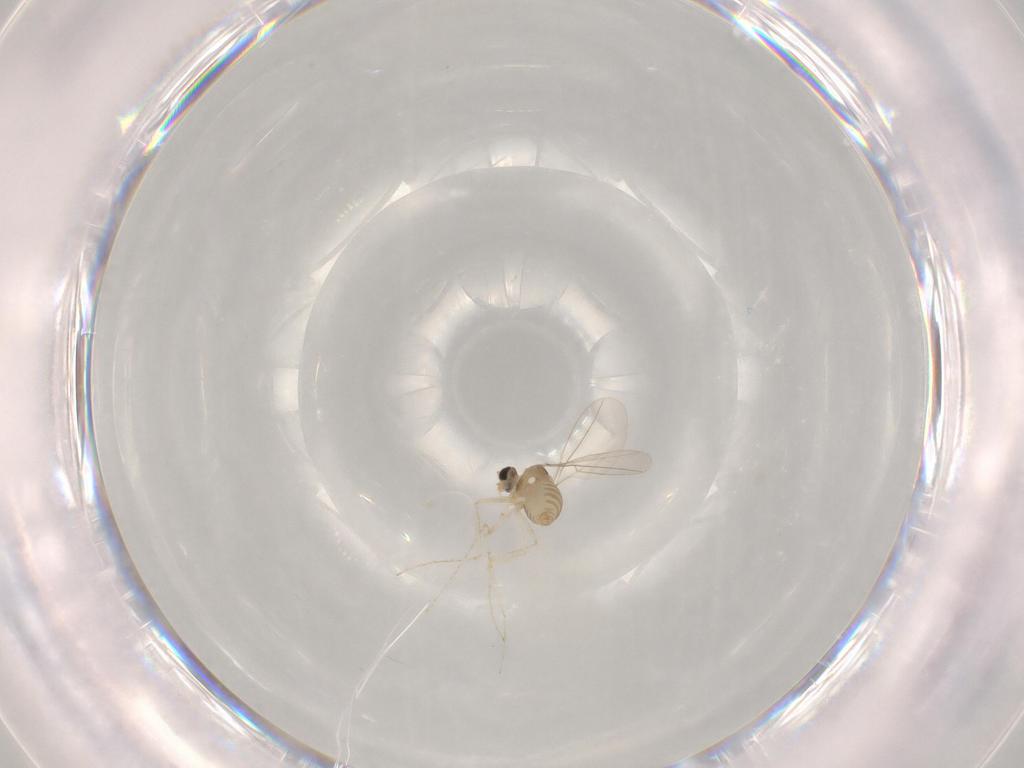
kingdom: Animalia
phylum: Arthropoda
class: Insecta
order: Diptera
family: Cecidomyiidae
